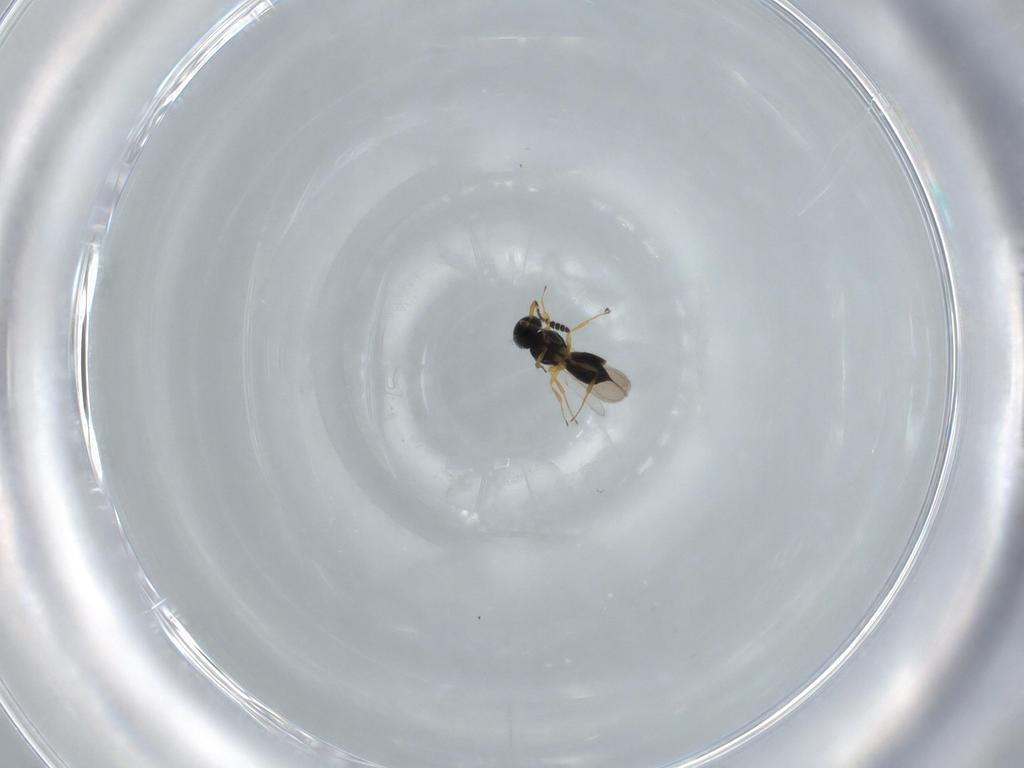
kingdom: Animalia
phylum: Arthropoda
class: Insecta
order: Hymenoptera
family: Scelionidae
